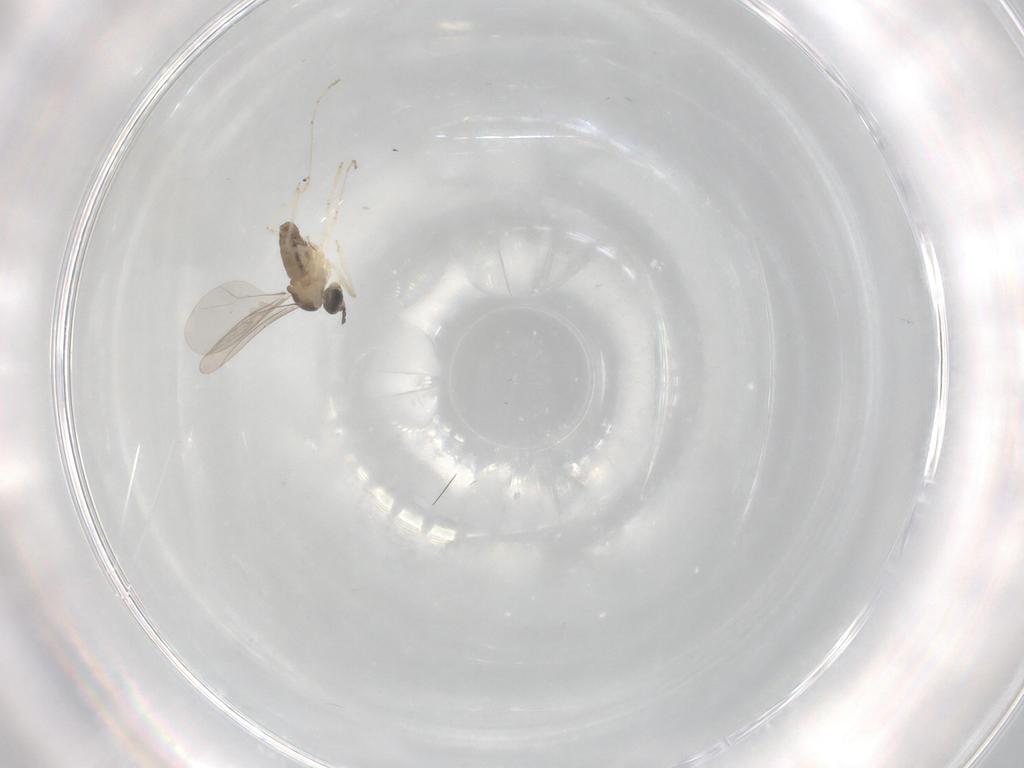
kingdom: Animalia
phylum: Arthropoda
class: Insecta
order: Diptera
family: Cecidomyiidae
